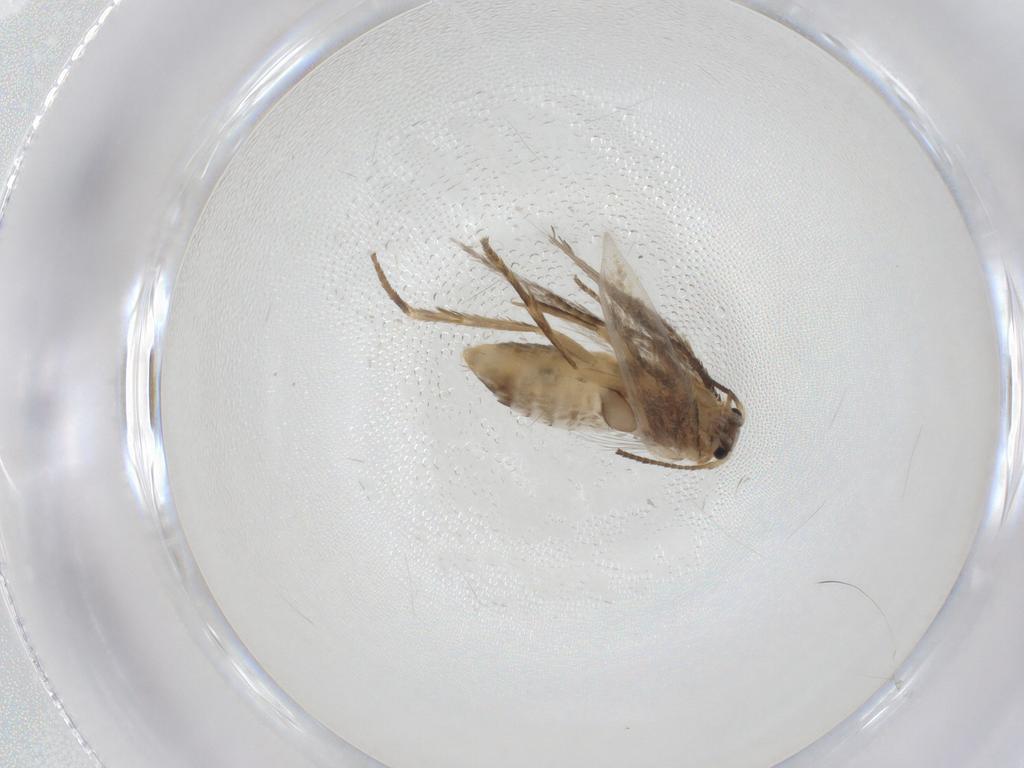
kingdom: Animalia
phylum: Arthropoda
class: Insecta
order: Lepidoptera
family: Nepticulidae
